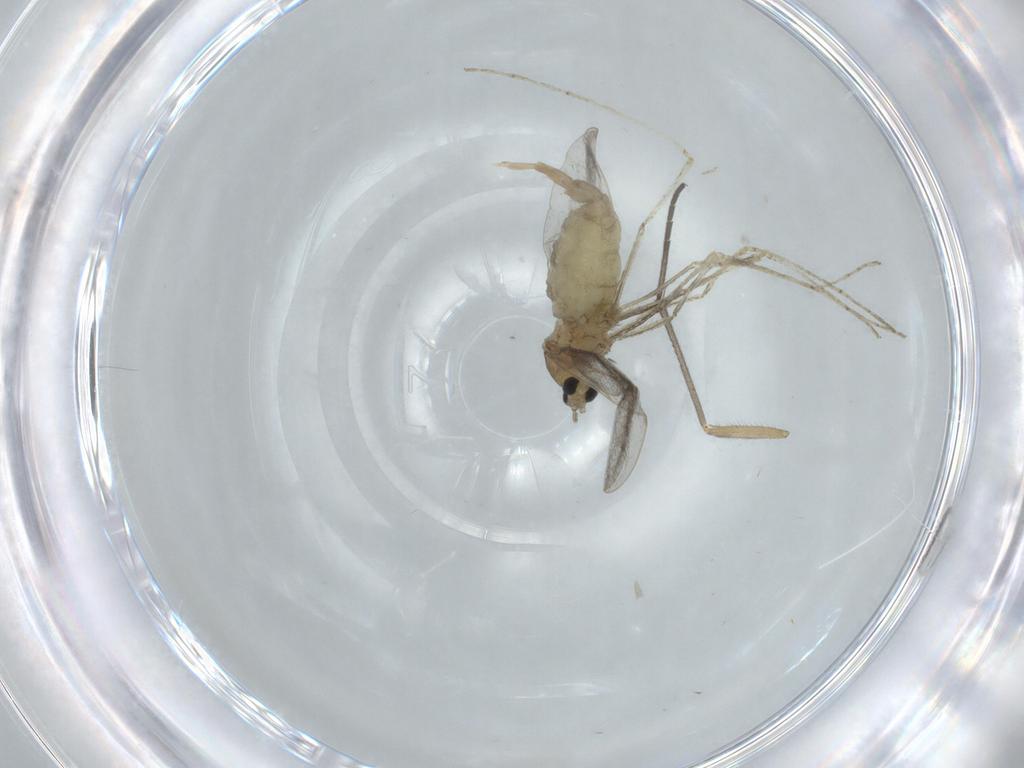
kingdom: Animalia
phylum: Arthropoda
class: Insecta
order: Diptera
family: Cecidomyiidae
